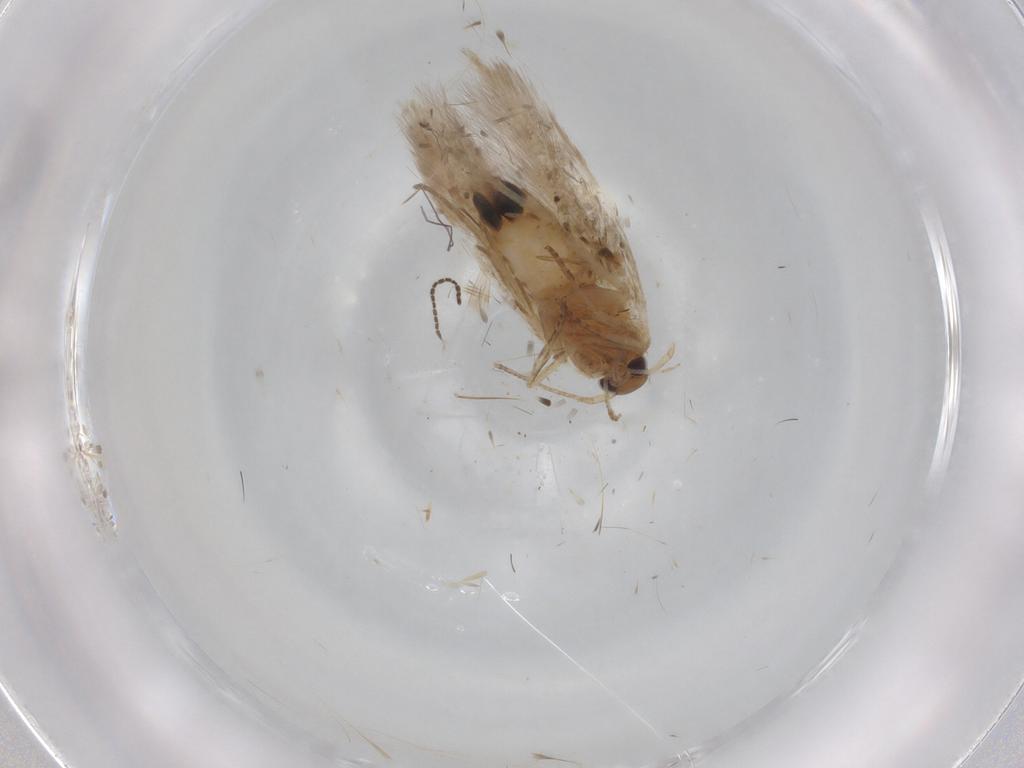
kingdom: Animalia
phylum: Arthropoda
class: Insecta
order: Lepidoptera
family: Cosmopterigidae
